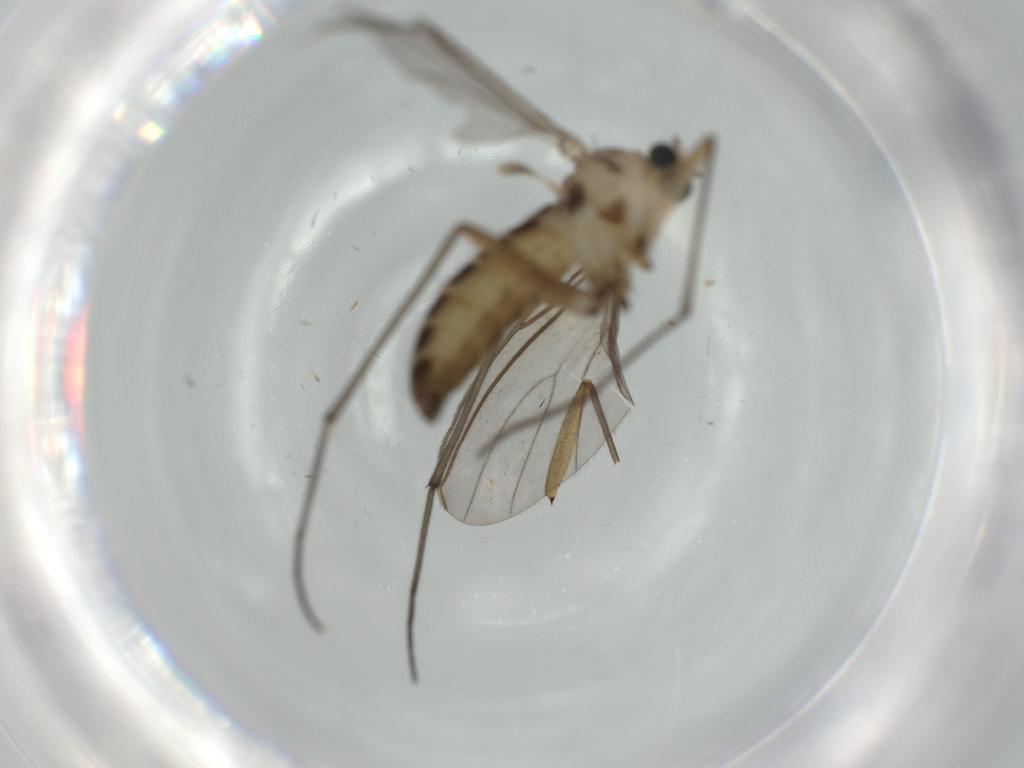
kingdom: Animalia
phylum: Arthropoda
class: Insecta
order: Diptera
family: Sciaridae
